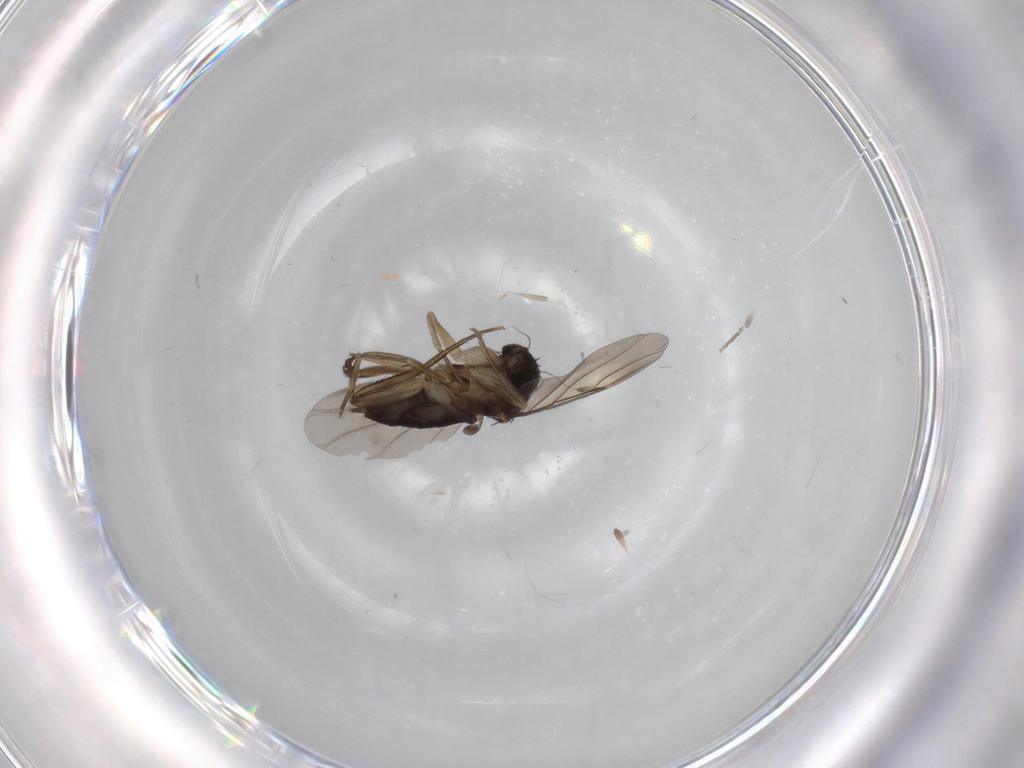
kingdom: Animalia
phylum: Arthropoda
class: Insecta
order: Diptera
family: Phoridae
